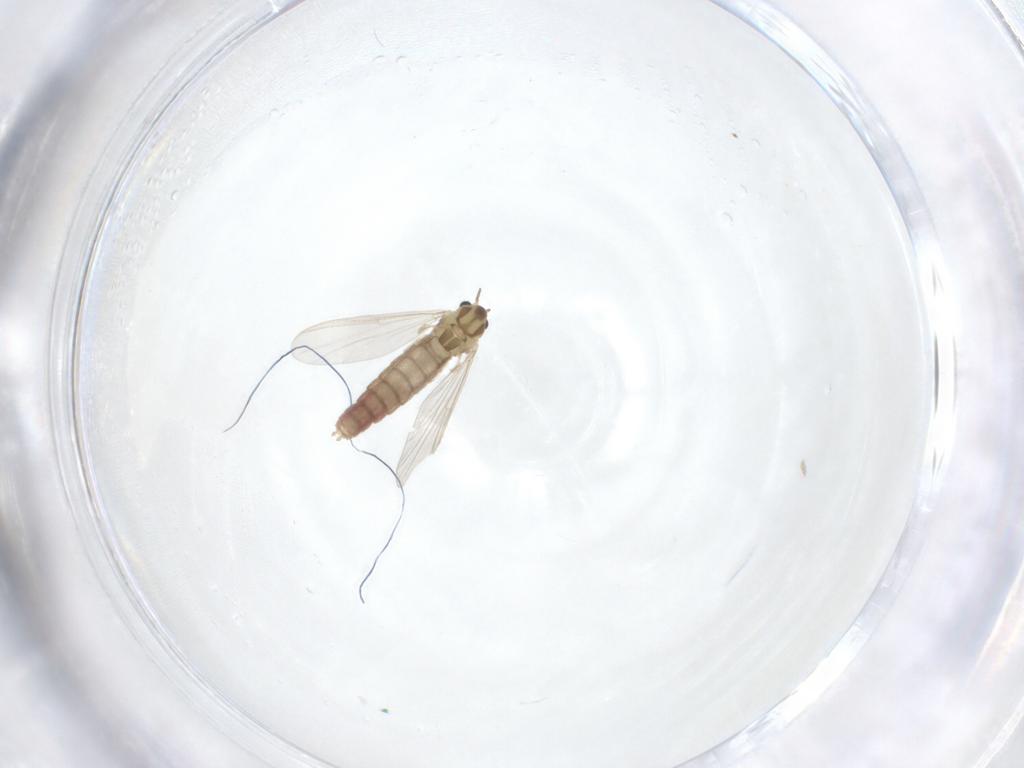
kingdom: Animalia
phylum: Arthropoda
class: Insecta
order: Diptera
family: Chironomidae
